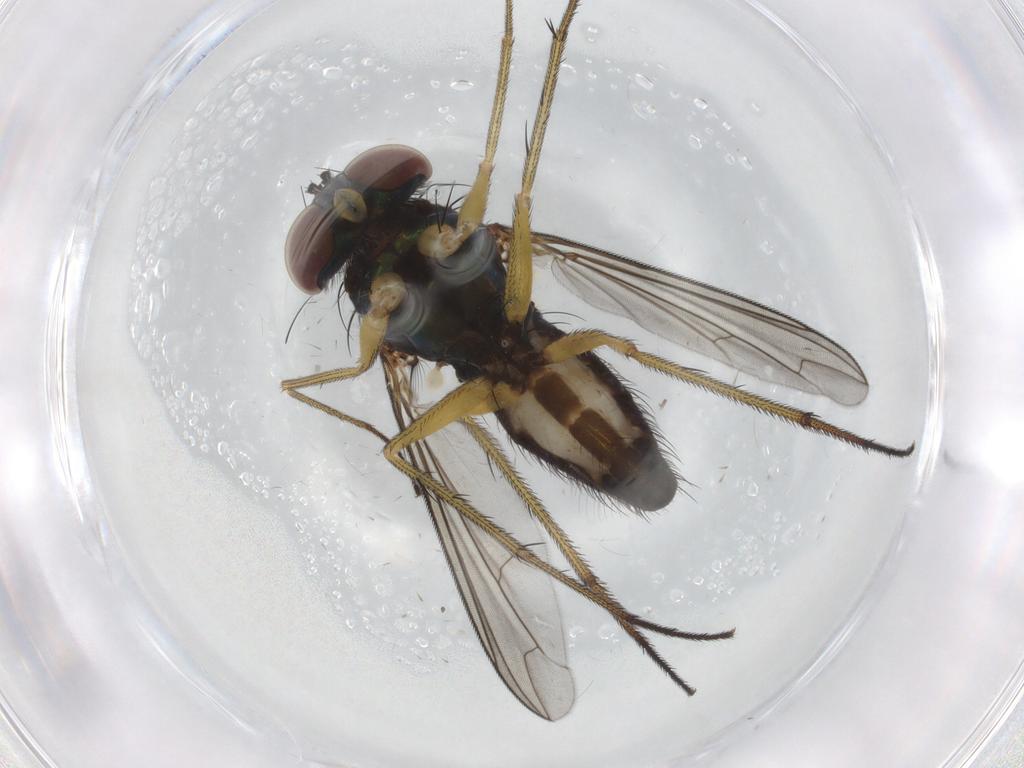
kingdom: Animalia
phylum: Arthropoda
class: Insecta
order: Diptera
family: Dolichopodidae
